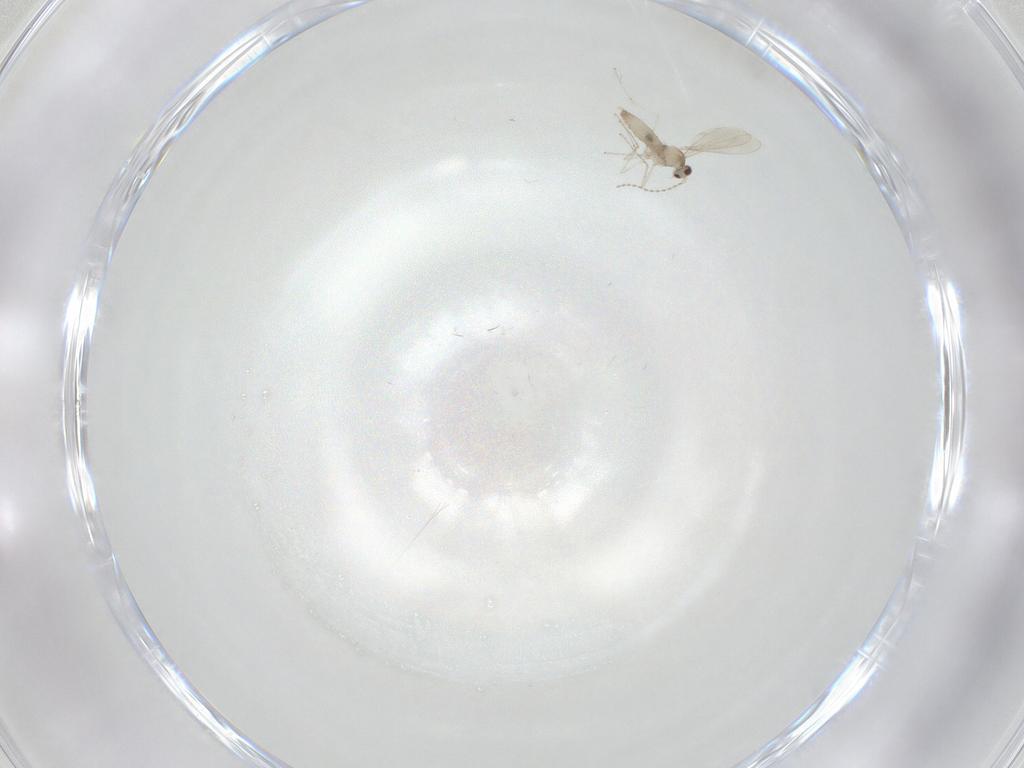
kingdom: Animalia
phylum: Arthropoda
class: Insecta
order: Diptera
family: Cecidomyiidae
